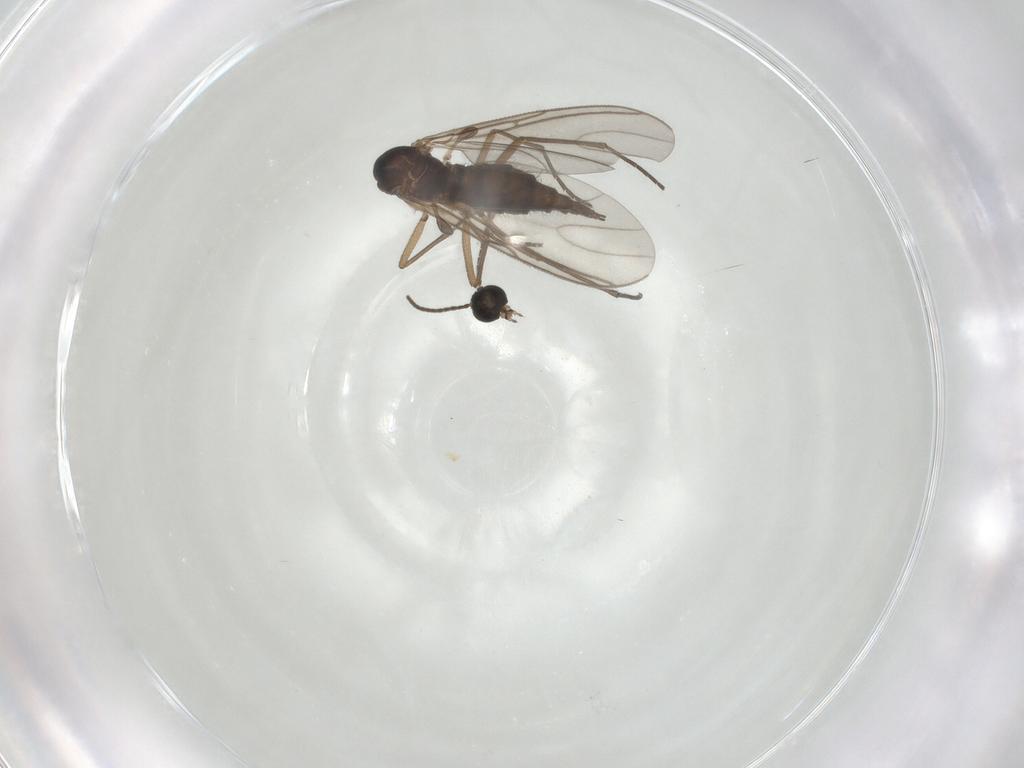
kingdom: Animalia
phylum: Arthropoda
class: Insecta
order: Diptera
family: Sciaridae
